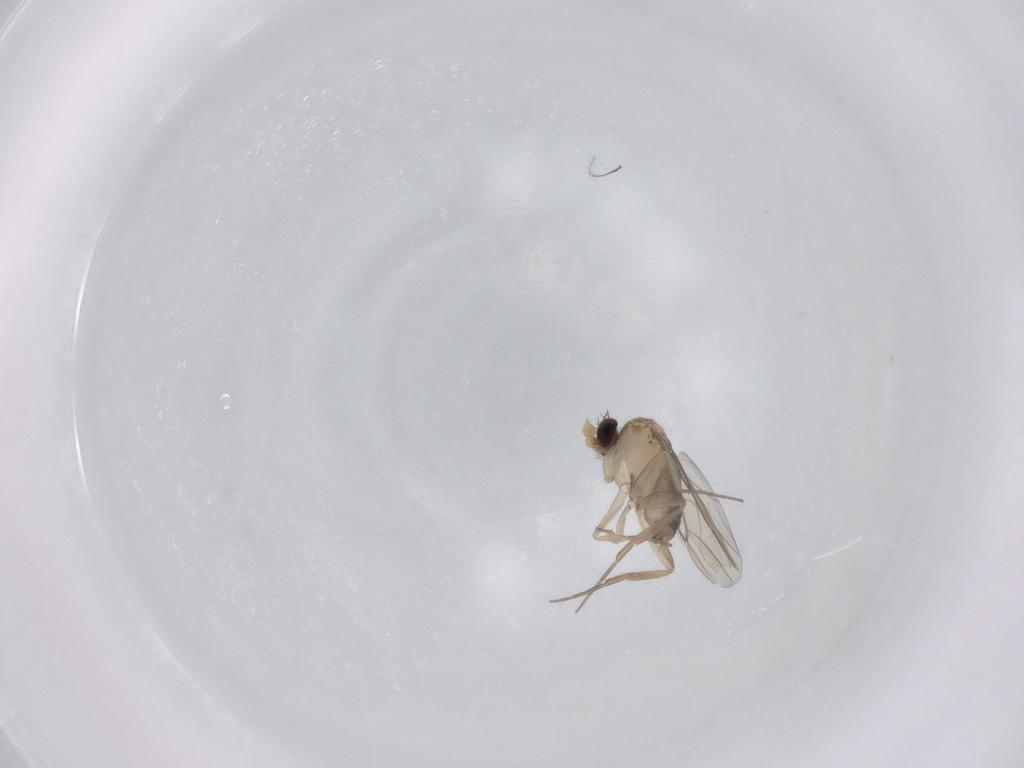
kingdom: Animalia
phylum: Arthropoda
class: Insecta
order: Diptera
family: Phoridae
